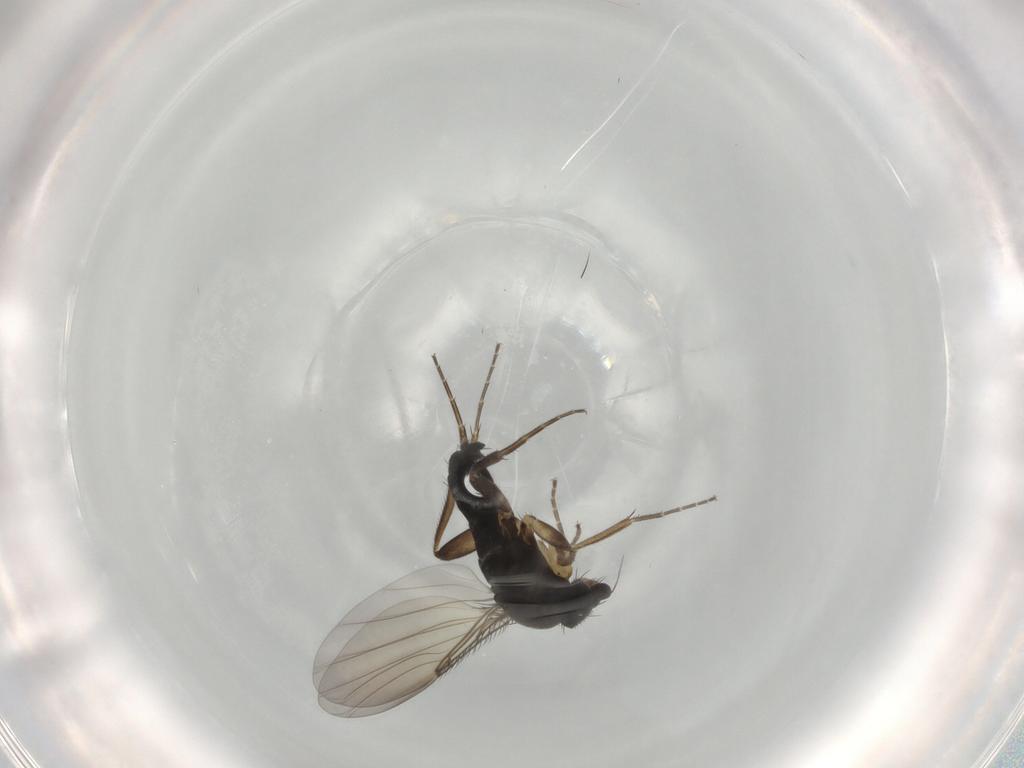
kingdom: Animalia
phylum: Arthropoda
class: Insecta
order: Diptera
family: Phoridae
